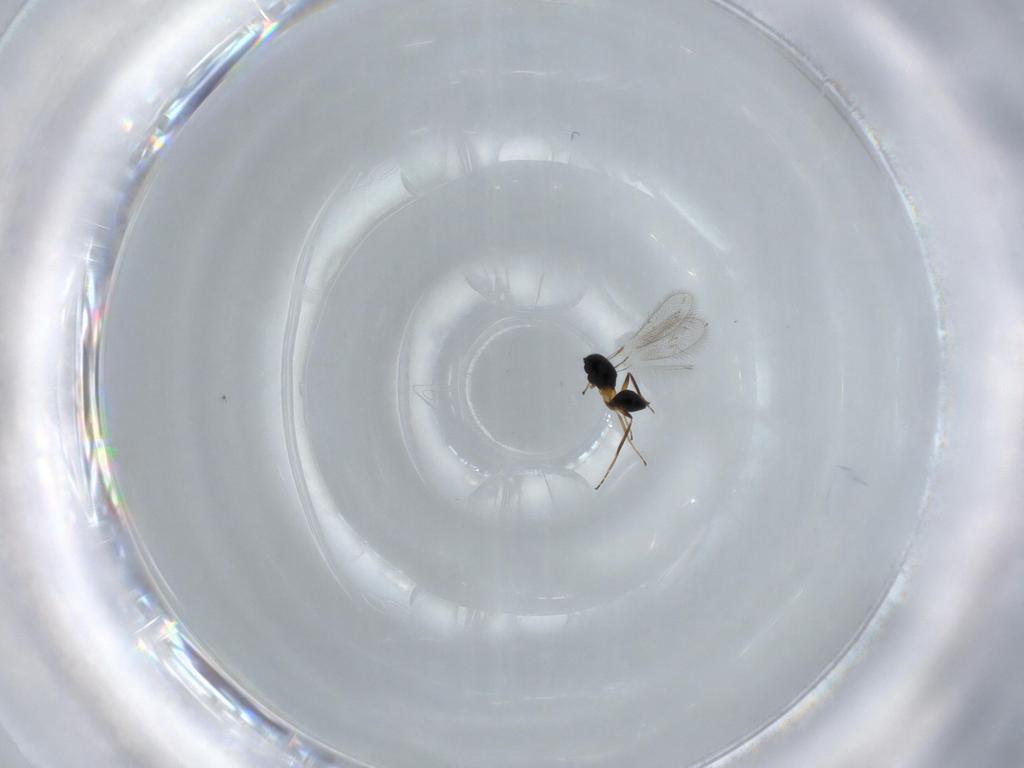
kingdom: Animalia
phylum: Arthropoda
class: Insecta
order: Hymenoptera
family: Mymaridae
